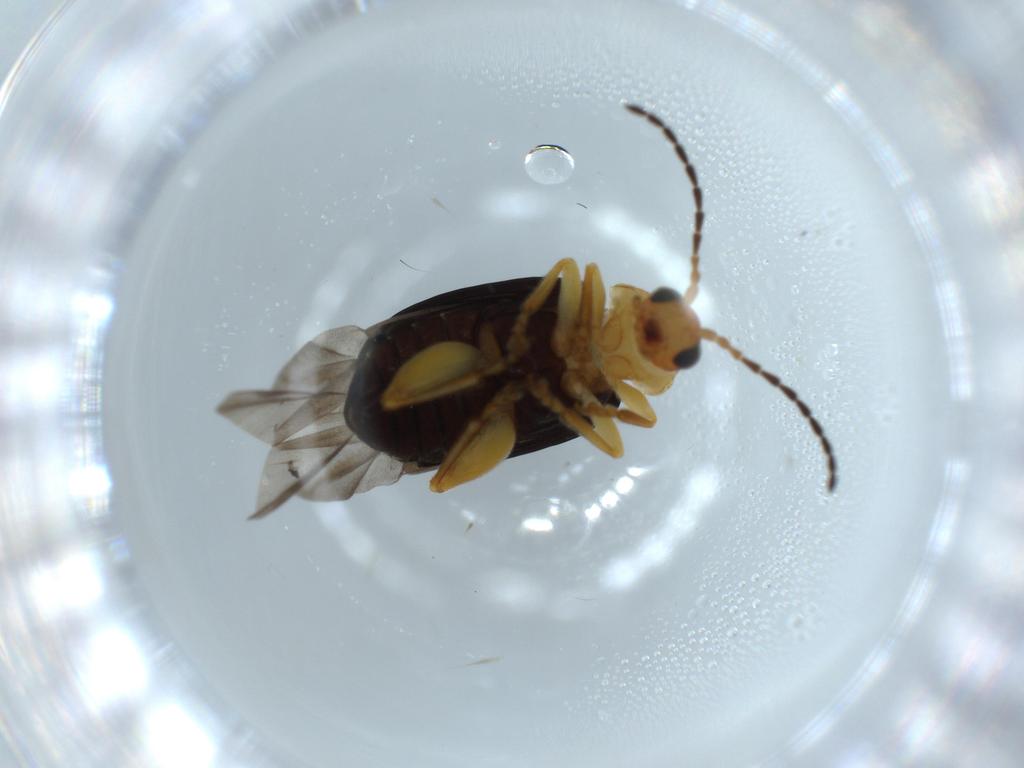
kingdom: Animalia
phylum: Arthropoda
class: Insecta
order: Coleoptera
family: Chrysomelidae
